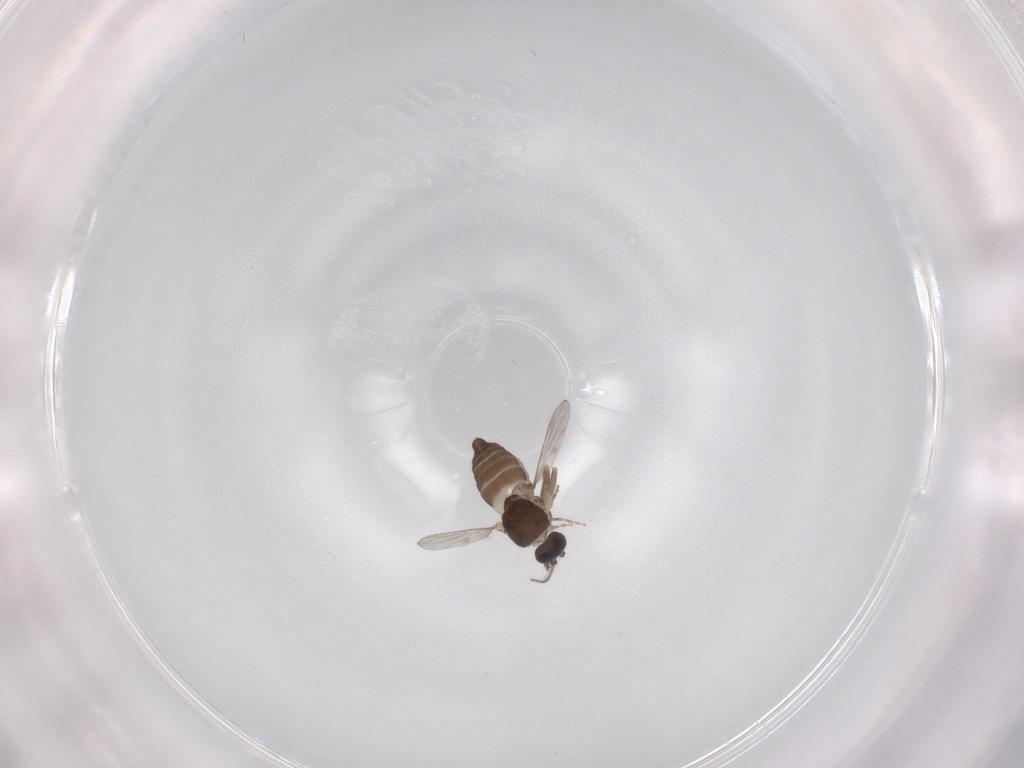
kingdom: Animalia
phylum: Arthropoda
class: Insecta
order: Diptera
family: Ceratopogonidae
